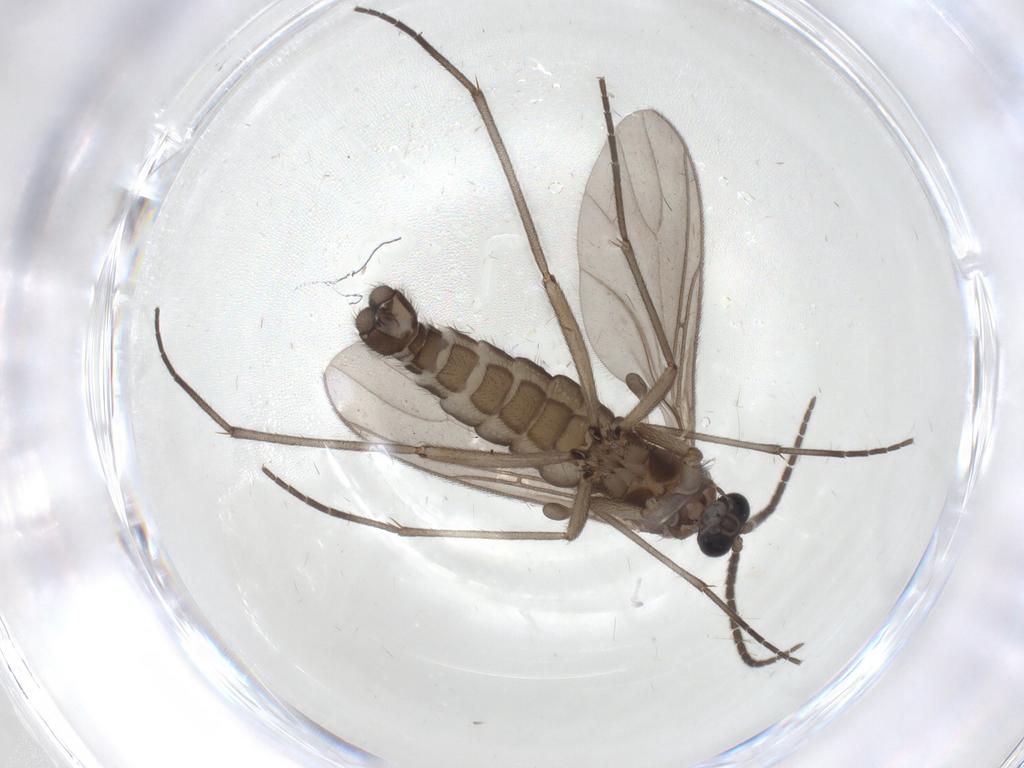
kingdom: Animalia
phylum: Arthropoda
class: Insecta
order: Diptera
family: Sciaridae
